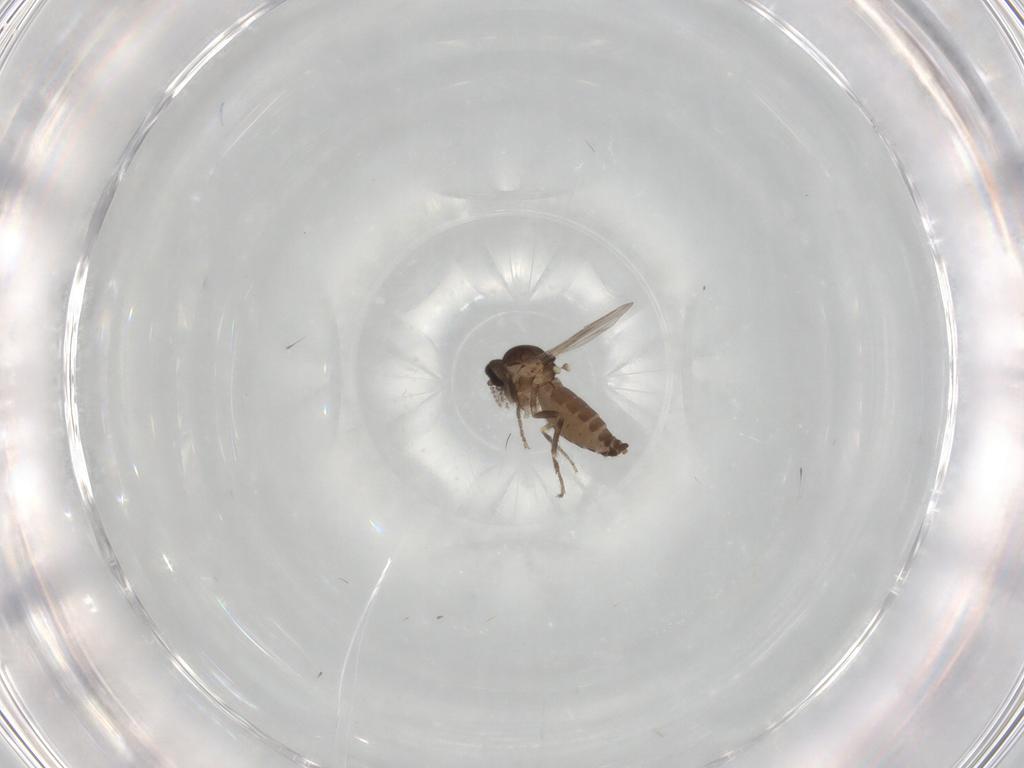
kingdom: Animalia
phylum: Arthropoda
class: Insecta
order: Diptera
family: Ceratopogonidae
